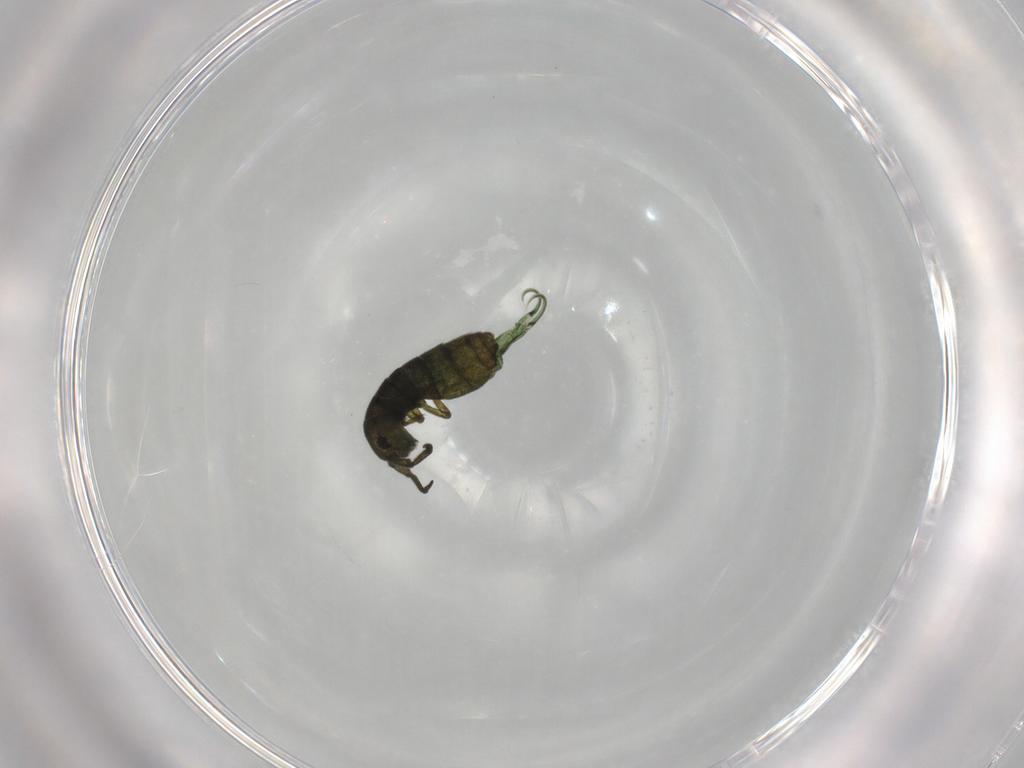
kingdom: Animalia
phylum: Arthropoda
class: Collembola
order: Entomobryomorpha
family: Isotomidae
